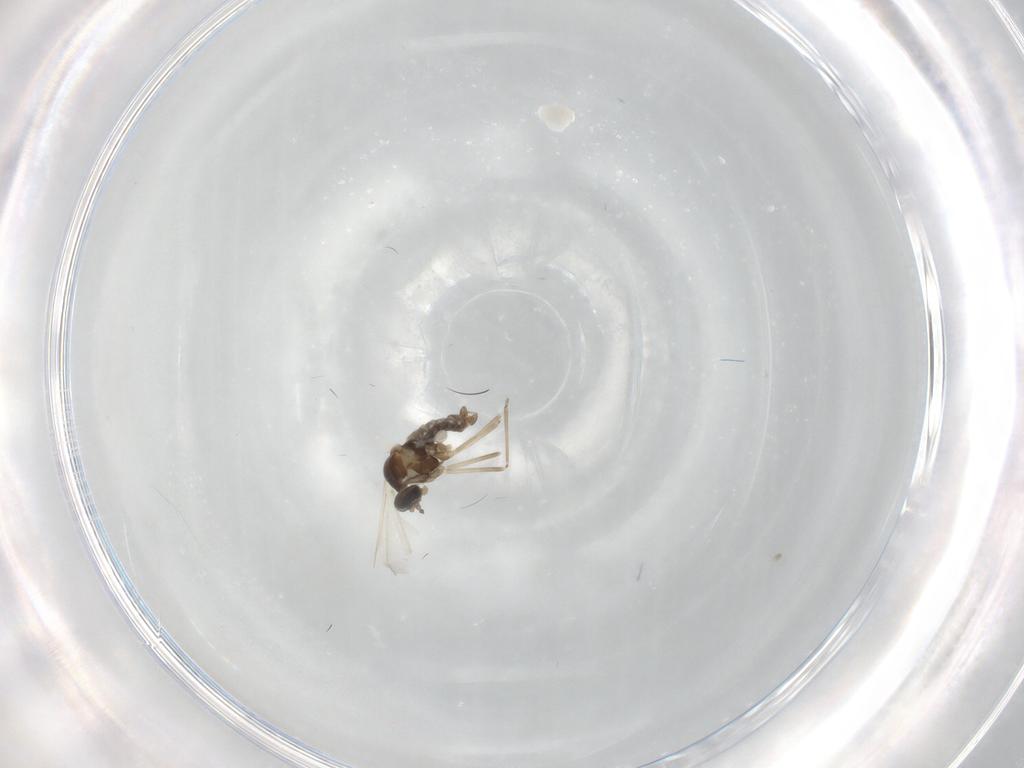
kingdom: Animalia
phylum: Arthropoda
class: Insecta
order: Diptera
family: Cecidomyiidae
